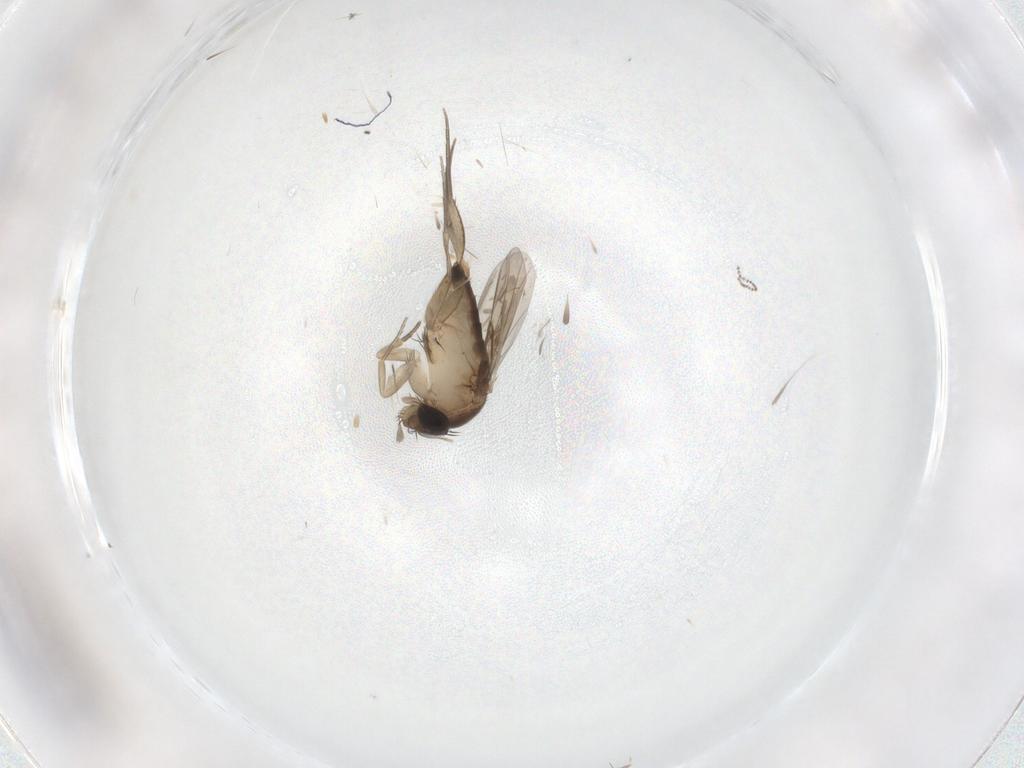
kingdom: Animalia
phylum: Arthropoda
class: Insecta
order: Diptera
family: Phoridae
